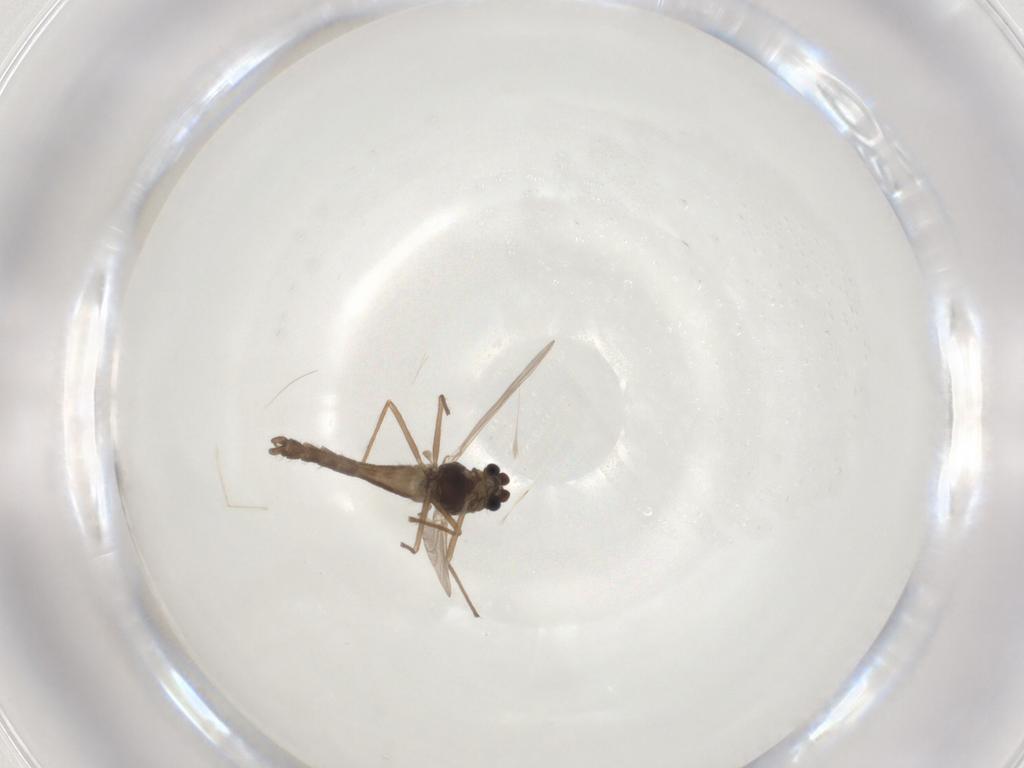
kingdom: Animalia
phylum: Arthropoda
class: Insecta
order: Diptera
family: Chironomidae
